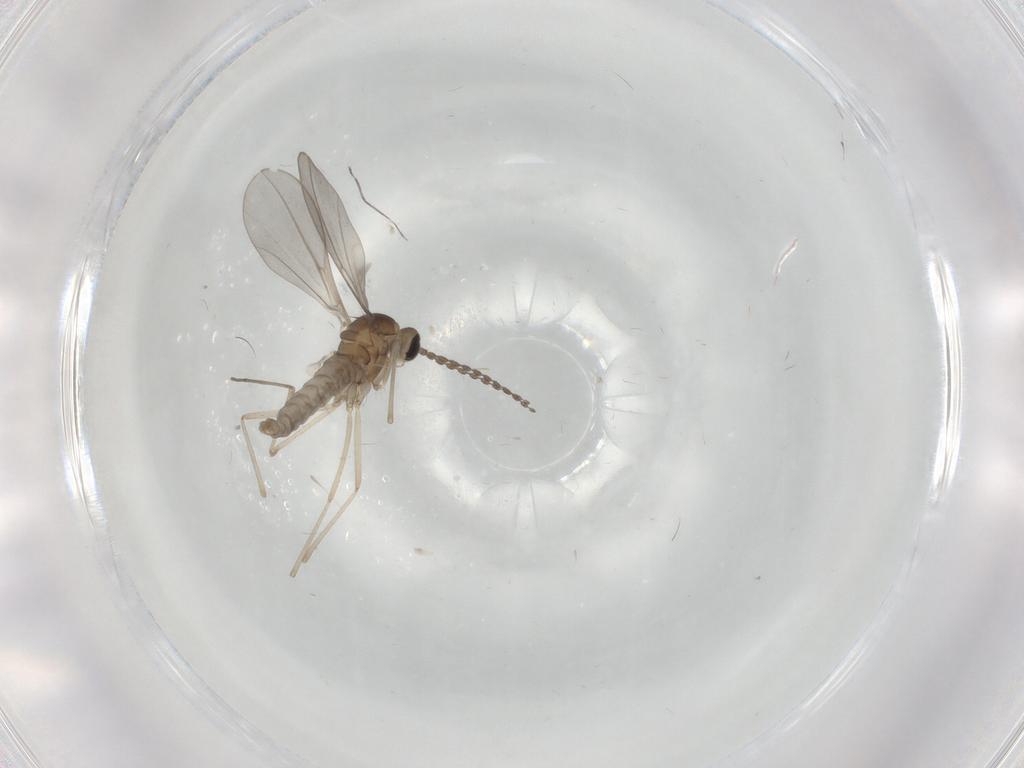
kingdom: Animalia
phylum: Arthropoda
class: Insecta
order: Diptera
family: Cecidomyiidae
